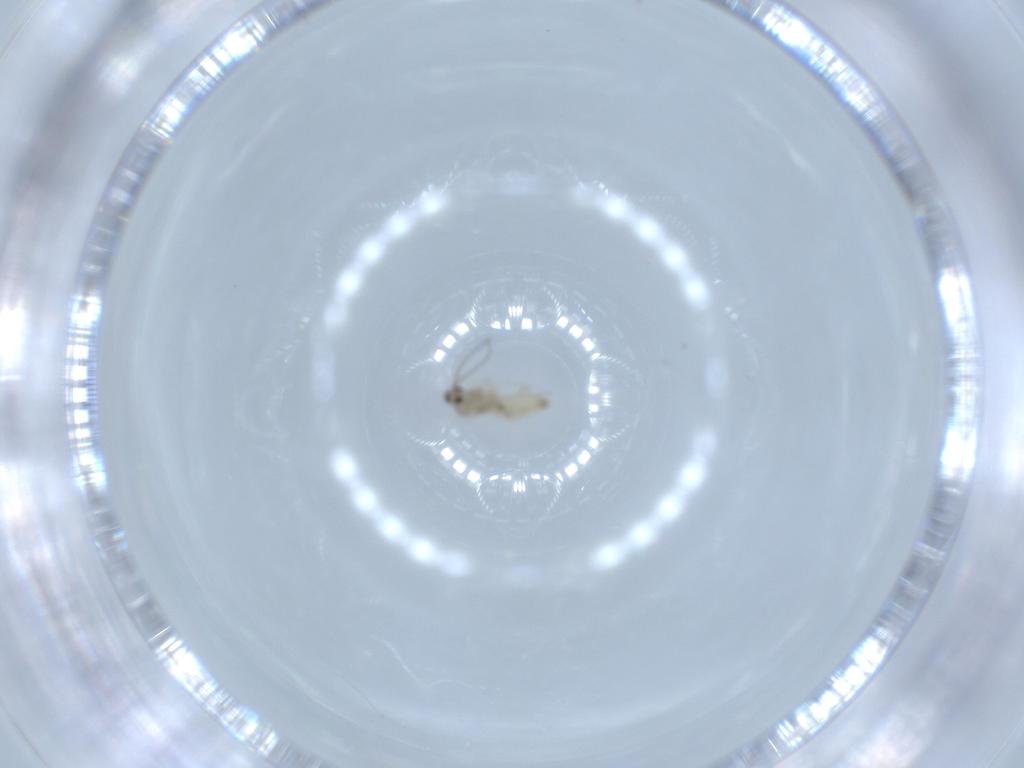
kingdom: Animalia
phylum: Arthropoda
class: Insecta
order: Diptera
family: Cecidomyiidae
